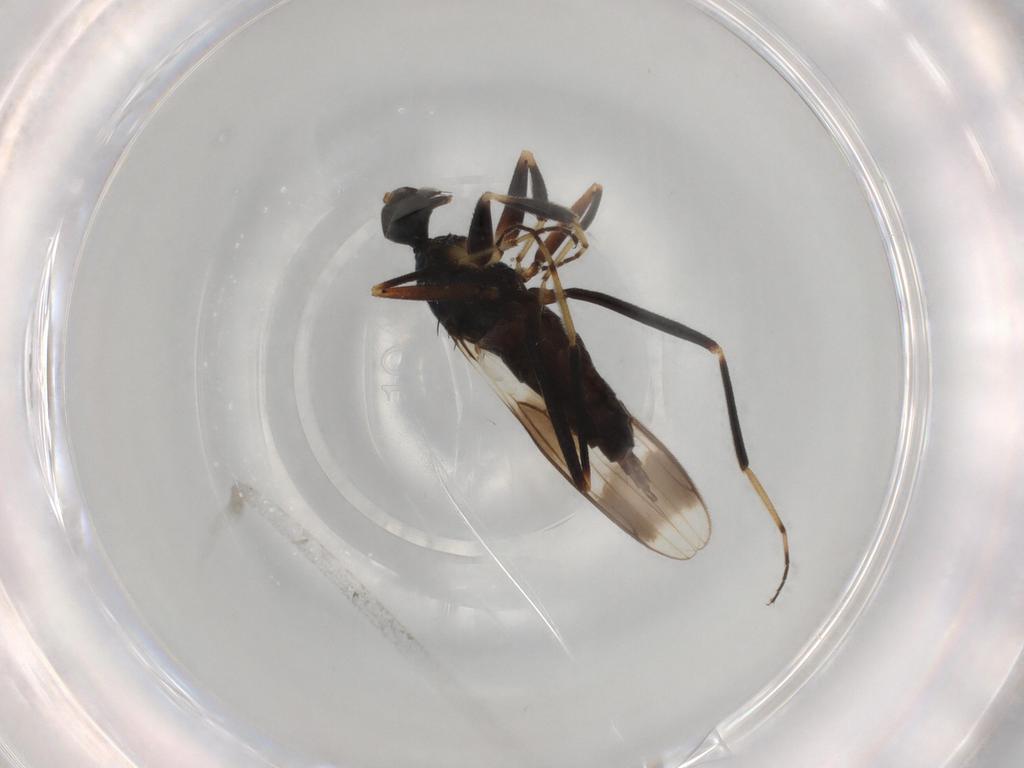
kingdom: Animalia
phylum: Arthropoda
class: Insecta
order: Diptera
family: Hybotidae
